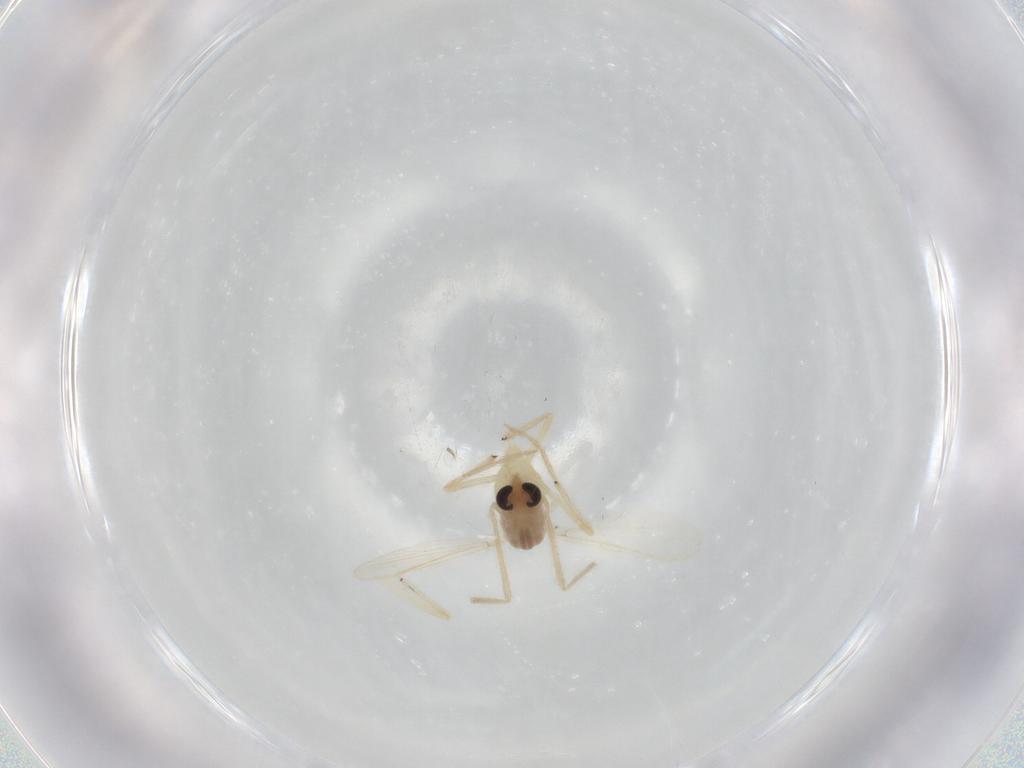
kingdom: Animalia
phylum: Arthropoda
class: Insecta
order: Diptera
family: Chironomidae
